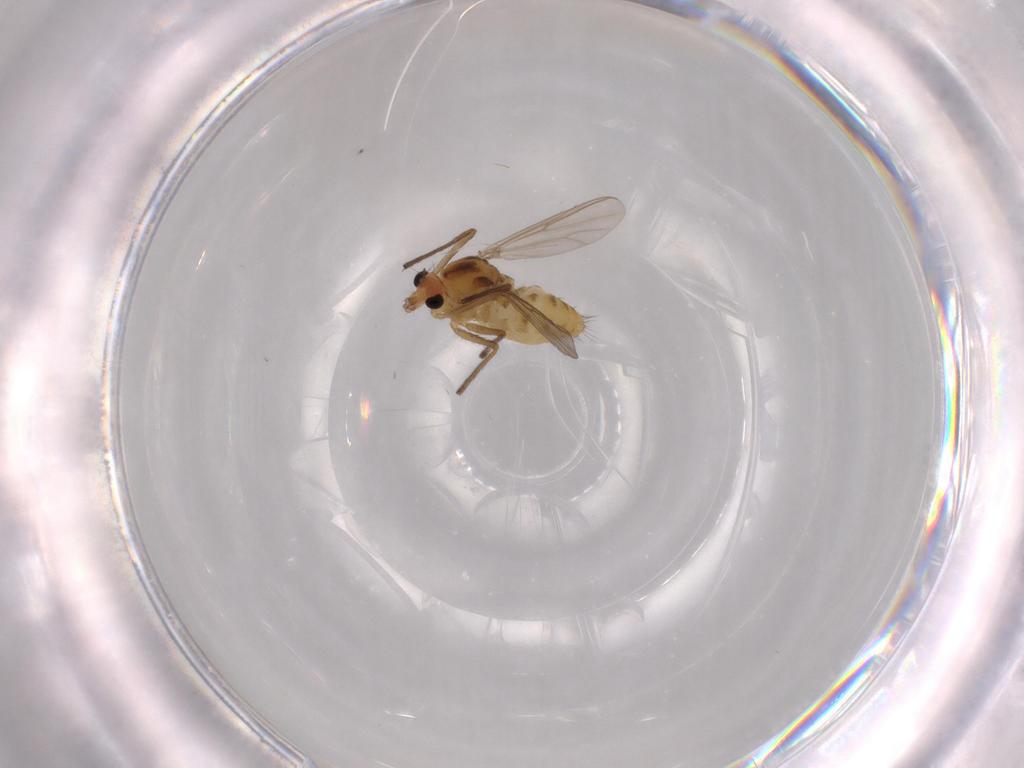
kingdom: Animalia
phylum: Arthropoda
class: Insecta
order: Diptera
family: Chironomidae
